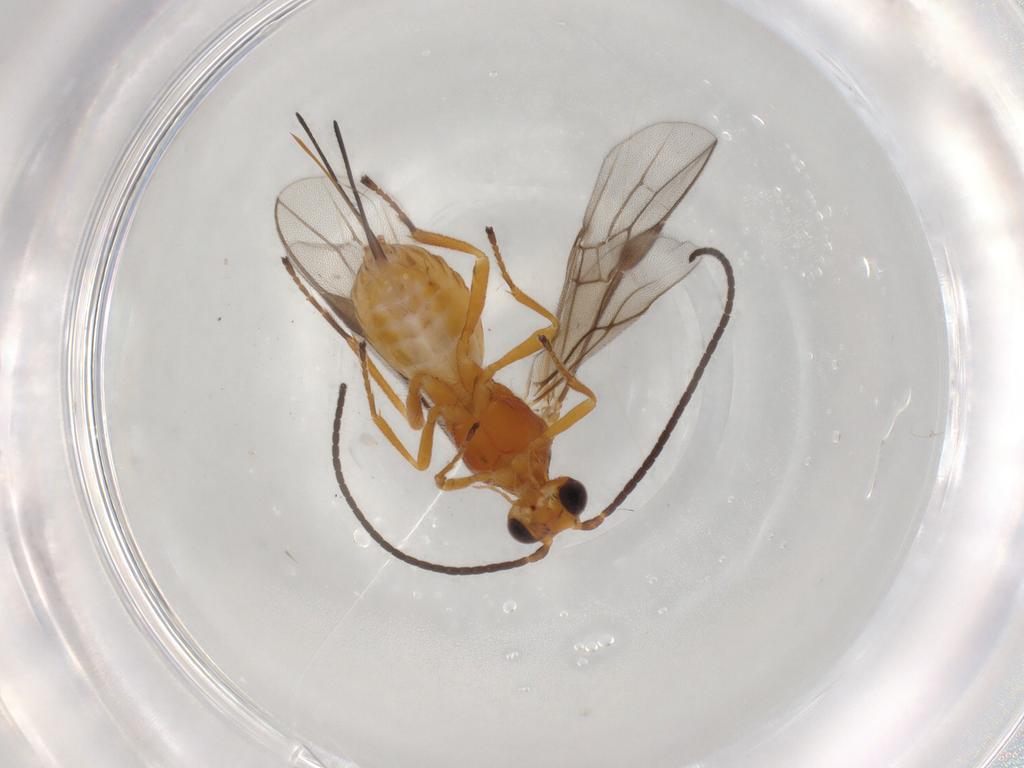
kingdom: Animalia
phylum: Arthropoda
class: Insecta
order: Hymenoptera
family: Braconidae
